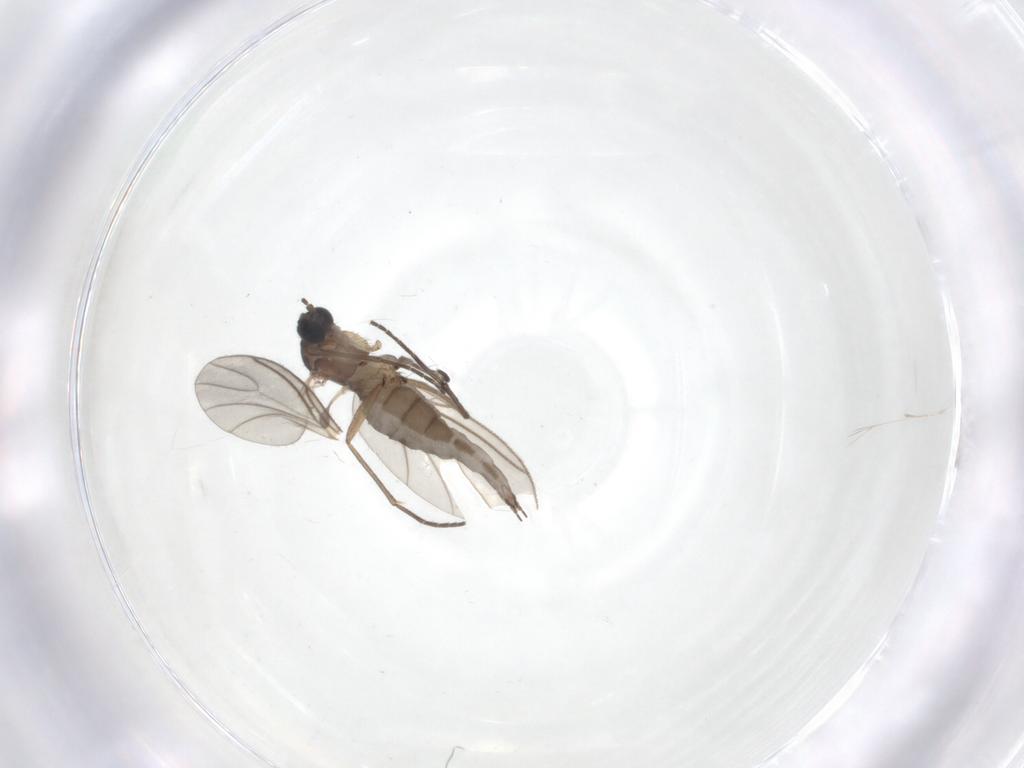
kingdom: Animalia
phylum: Arthropoda
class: Insecta
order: Diptera
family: Sciaridae
